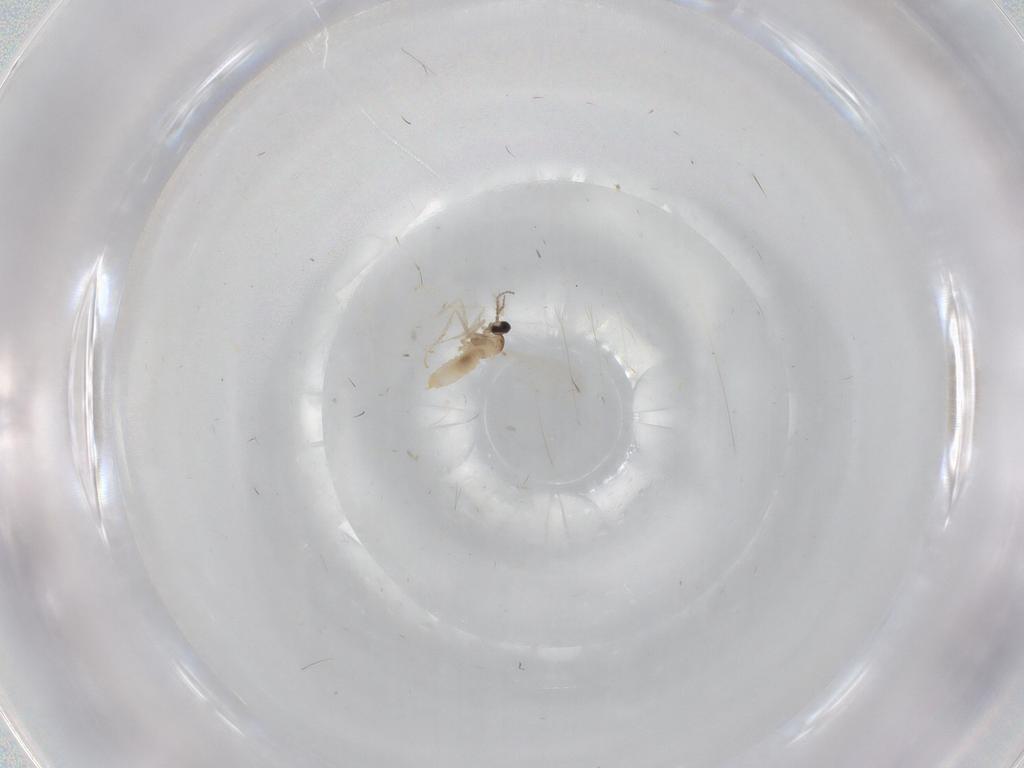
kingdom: Animalia
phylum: Arthropoda
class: Insecta
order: Diptera
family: Cecidomyiidae
